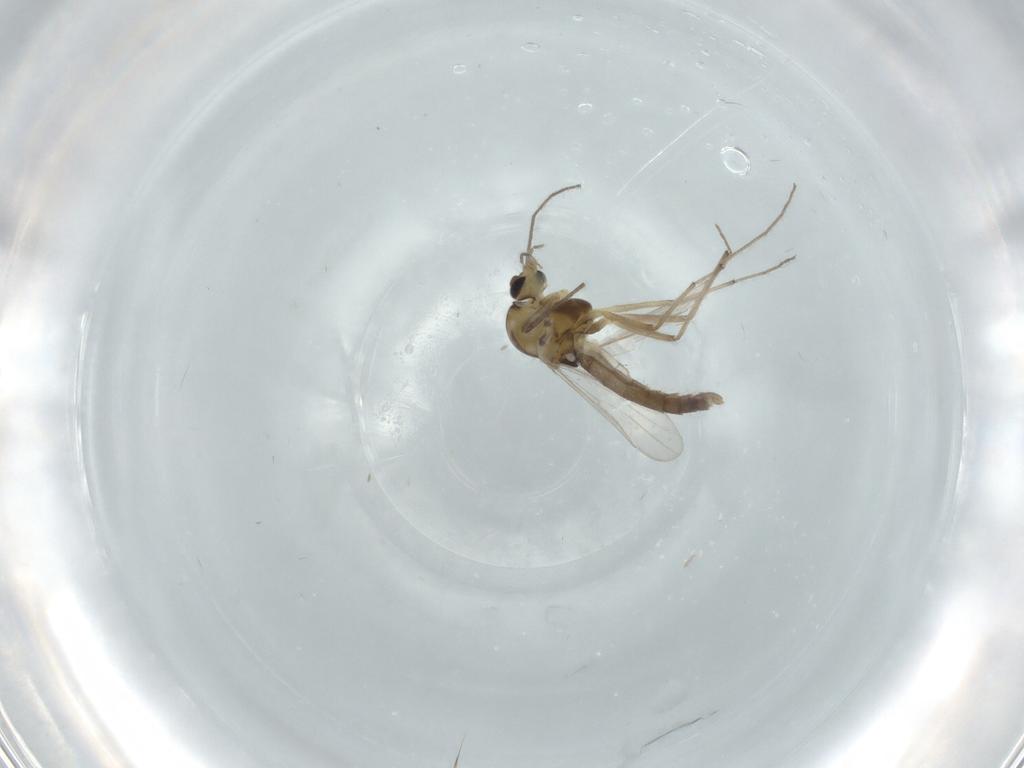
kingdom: Animalia
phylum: Arthropoda
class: Insecta
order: Diptera
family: Chironomidae
